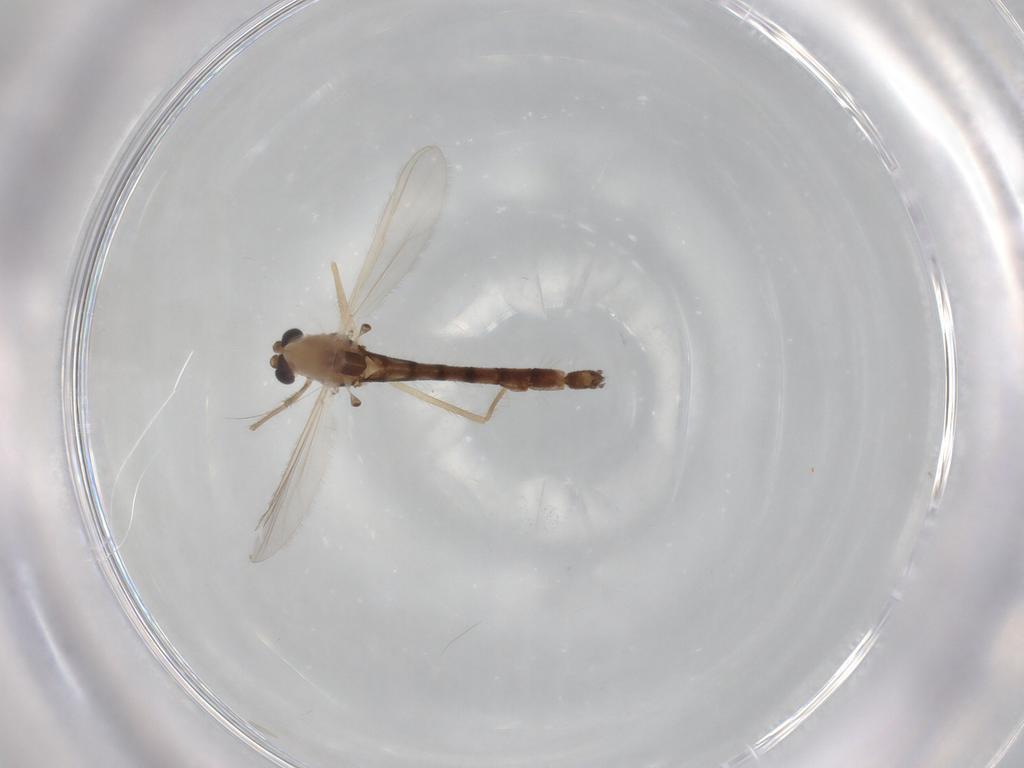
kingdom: Animalia
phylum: Arthropoda
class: Insecta
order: Diptera
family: Chironomidae
